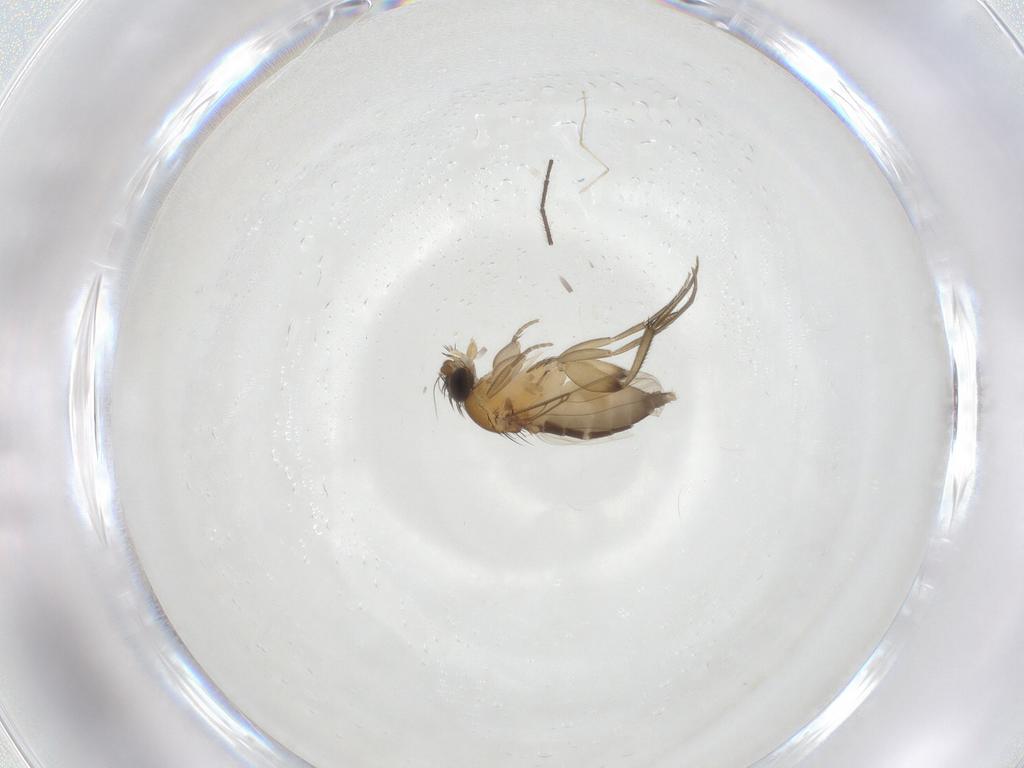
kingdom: Animalia
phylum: Arthropoda
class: Insecta
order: Diptera
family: Phoridae
